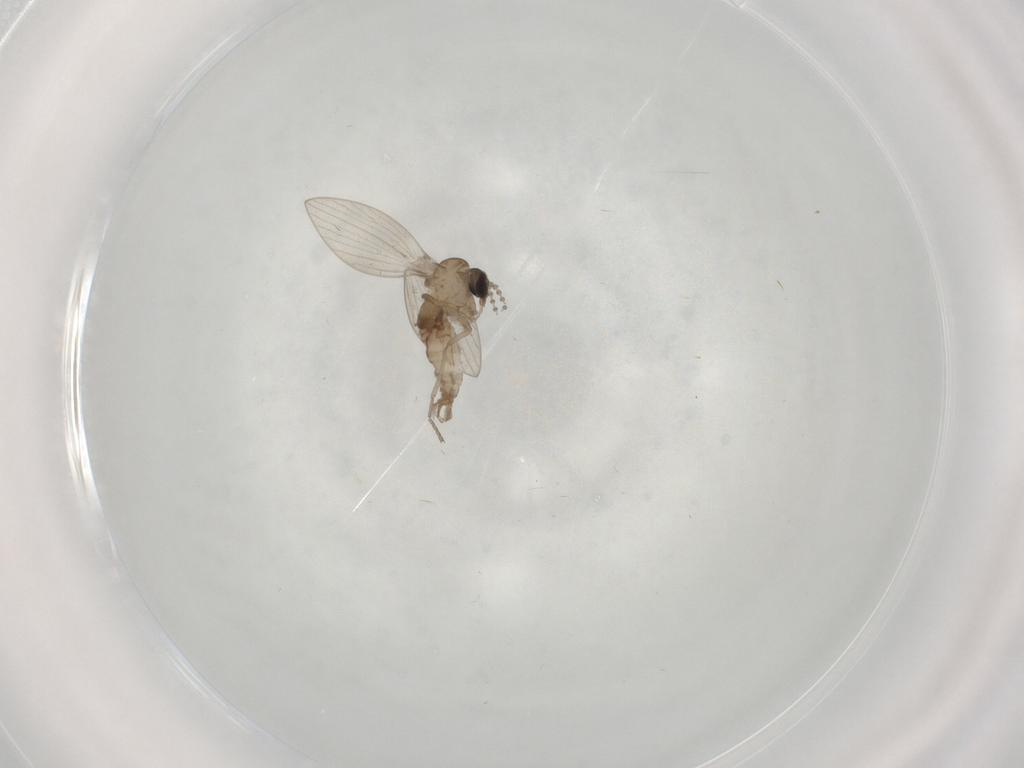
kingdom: Animalia
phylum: Arthropoda
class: Insecta
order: Diptera
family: Psychodidae
